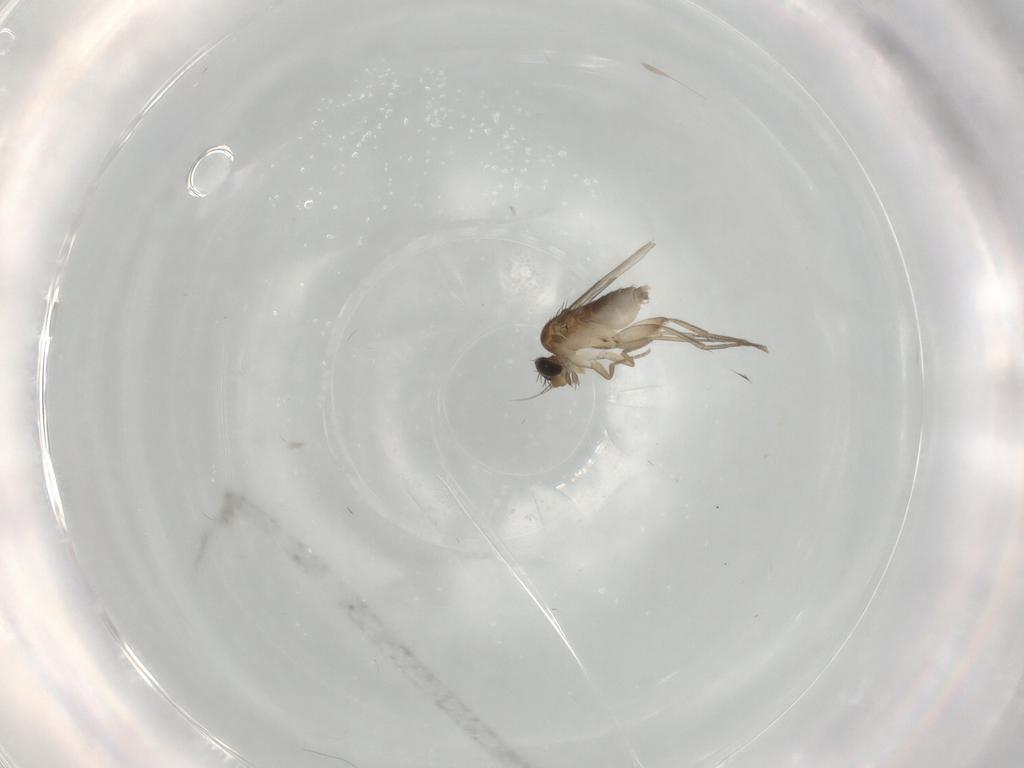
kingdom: Animalia
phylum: Arthropoda
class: Insecta
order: Diptera
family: Phoridae
